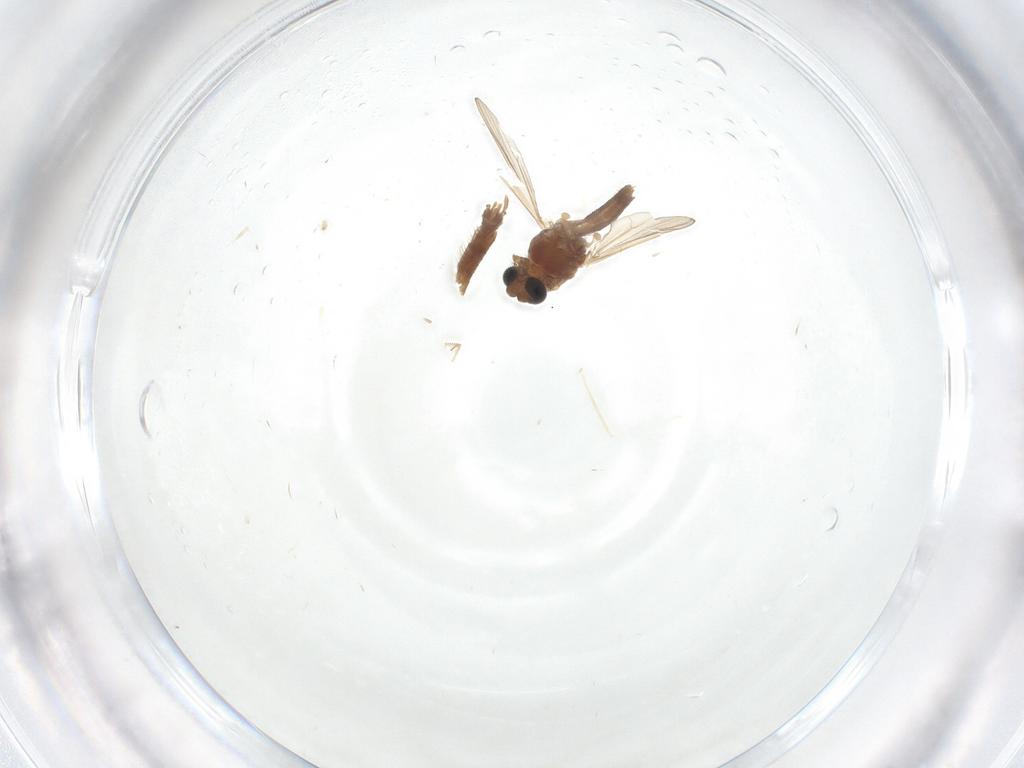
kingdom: Animalia
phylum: Arthropoda
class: Insecta
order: Diptera
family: Chironomidae
